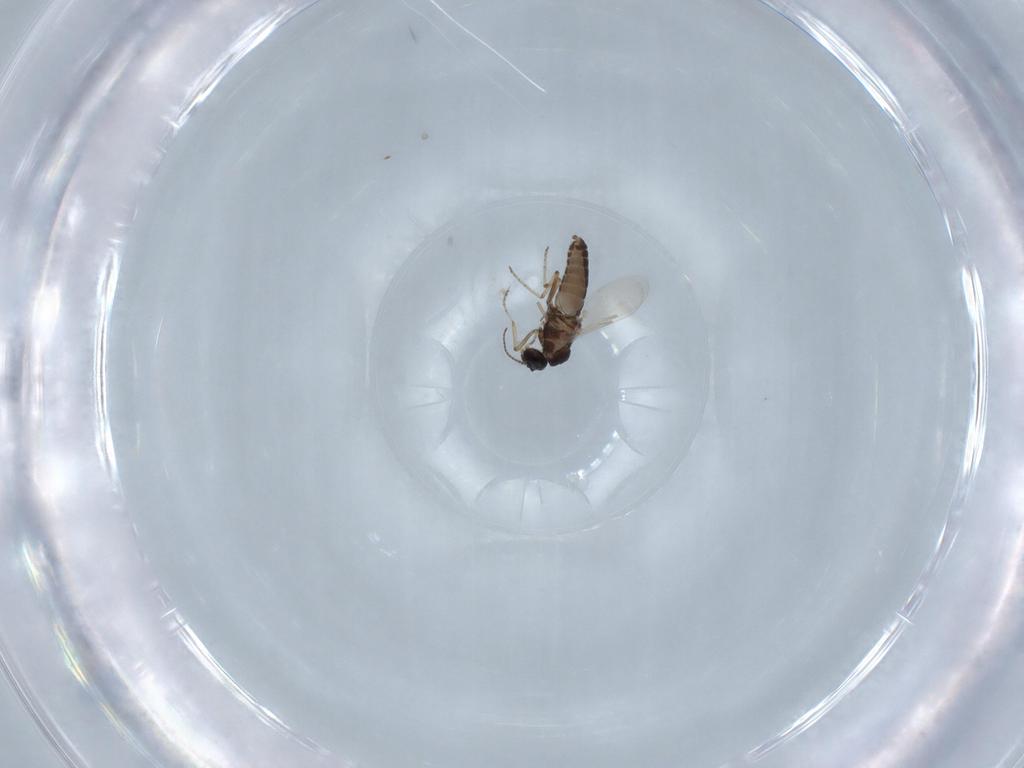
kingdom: Animalia
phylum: Arthropoda
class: Insecta
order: Diptera
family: Ceratopogonidae
